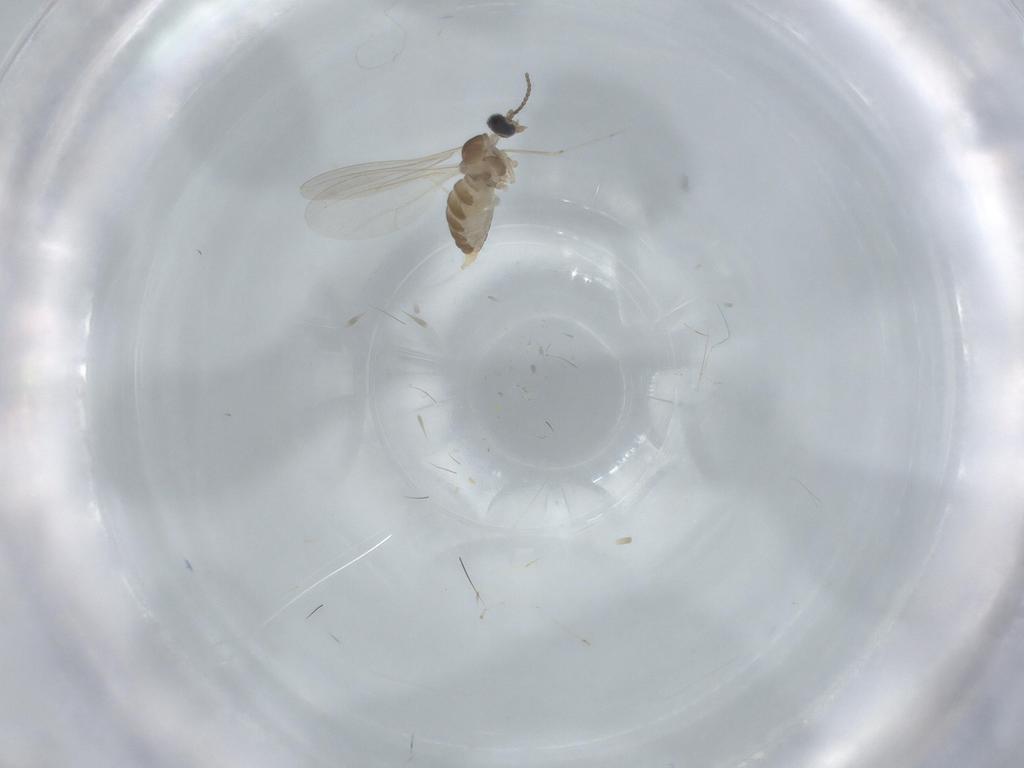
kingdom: Animalia
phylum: Arthropoda
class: Insecta
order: Diptera
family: Cecidomyiidae
